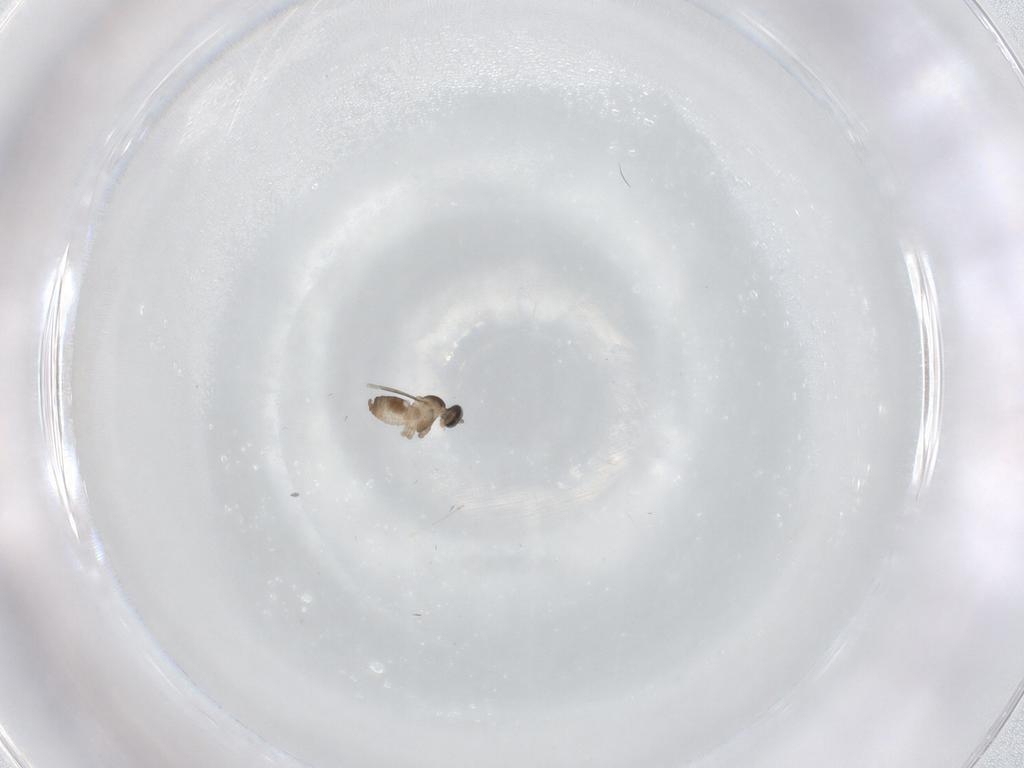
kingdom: Animalia
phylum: Arthropoda
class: Insecta
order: Diptera
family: Cecidomyiidae
